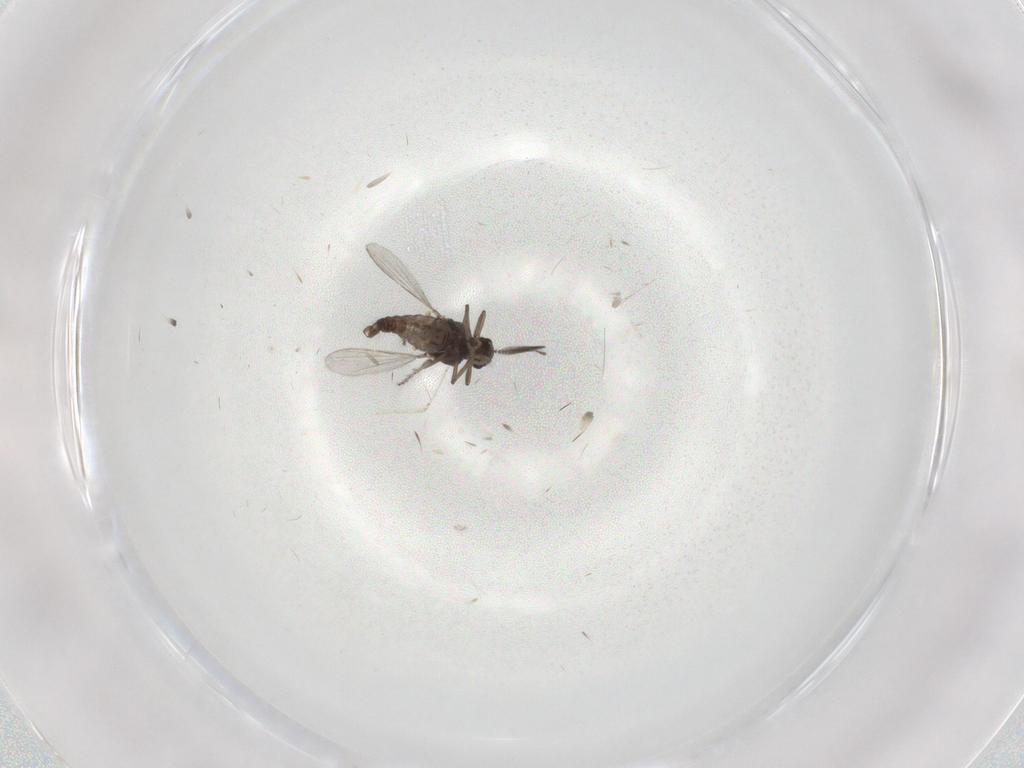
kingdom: Animalia
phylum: Arthropoda
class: Insecta
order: Diptera
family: Ceratopogonidae
